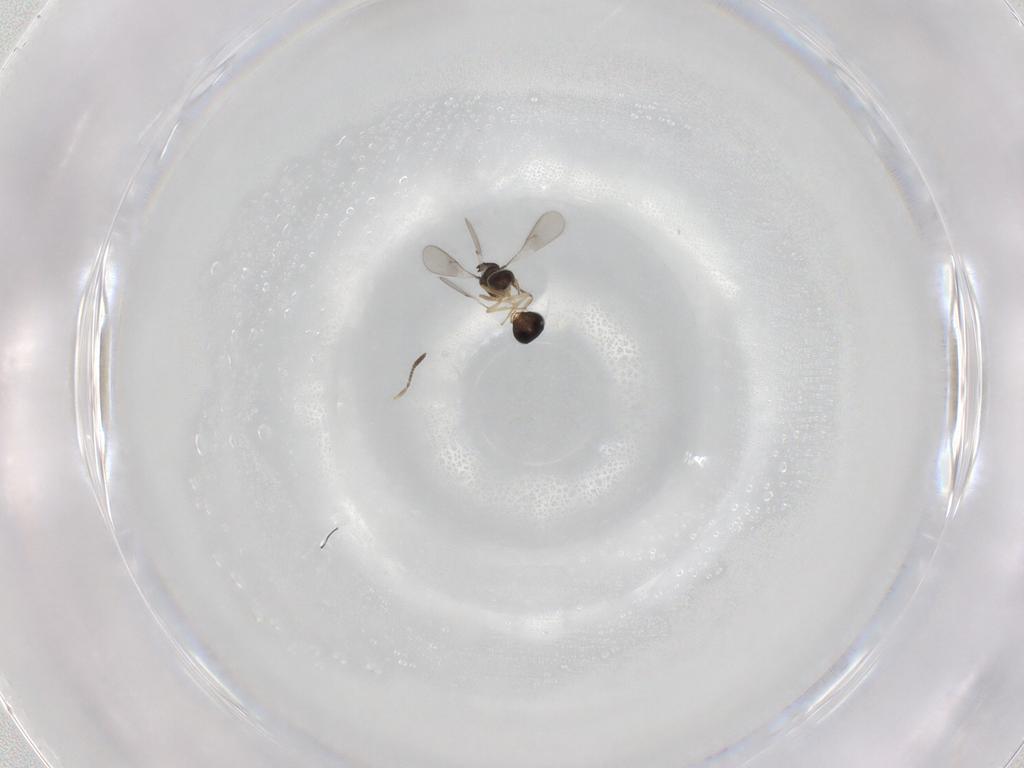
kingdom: Animalia
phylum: Arthropoda
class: Insecta
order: Hymenoptera
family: Scelionidae
